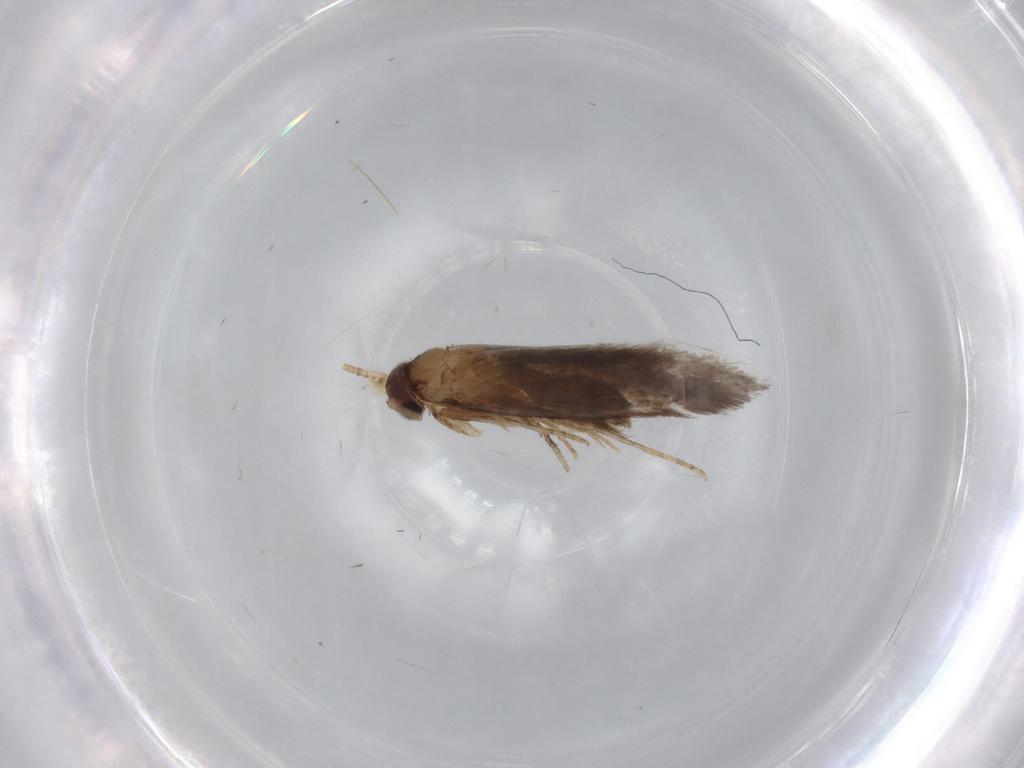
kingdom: Animalia
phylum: Arthropoda
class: Insecta
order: Lepidoptera
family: Tineidae
